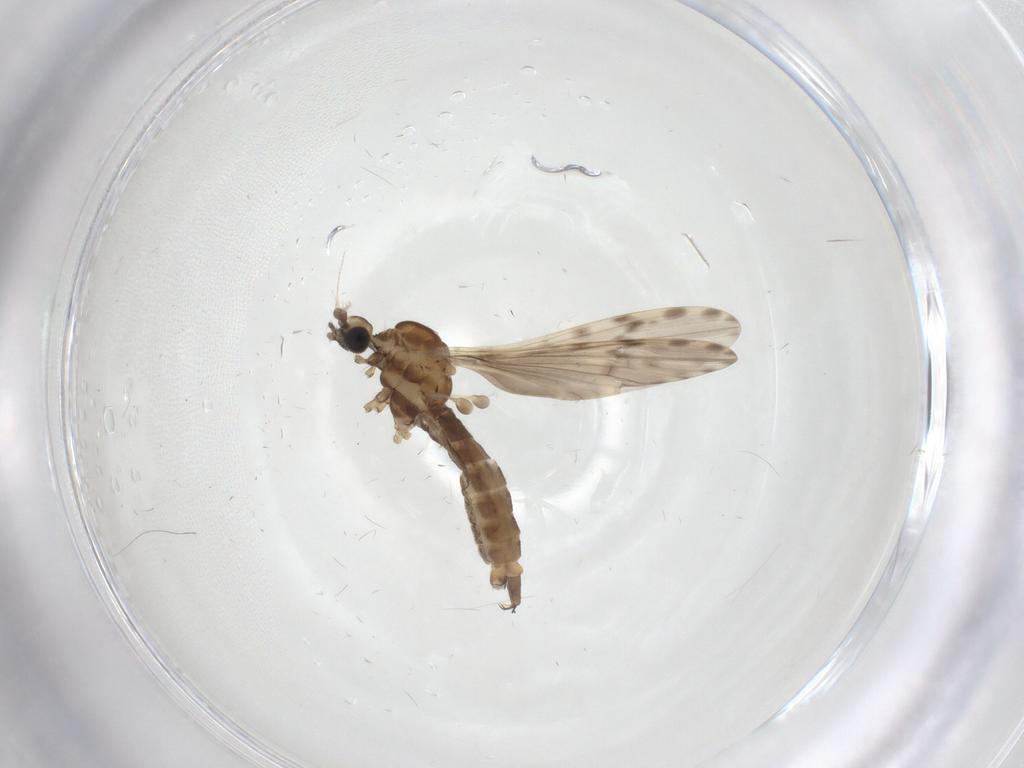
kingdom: Animalia
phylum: Arthropoda
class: Insecta
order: Diptera
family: Limoniidae
